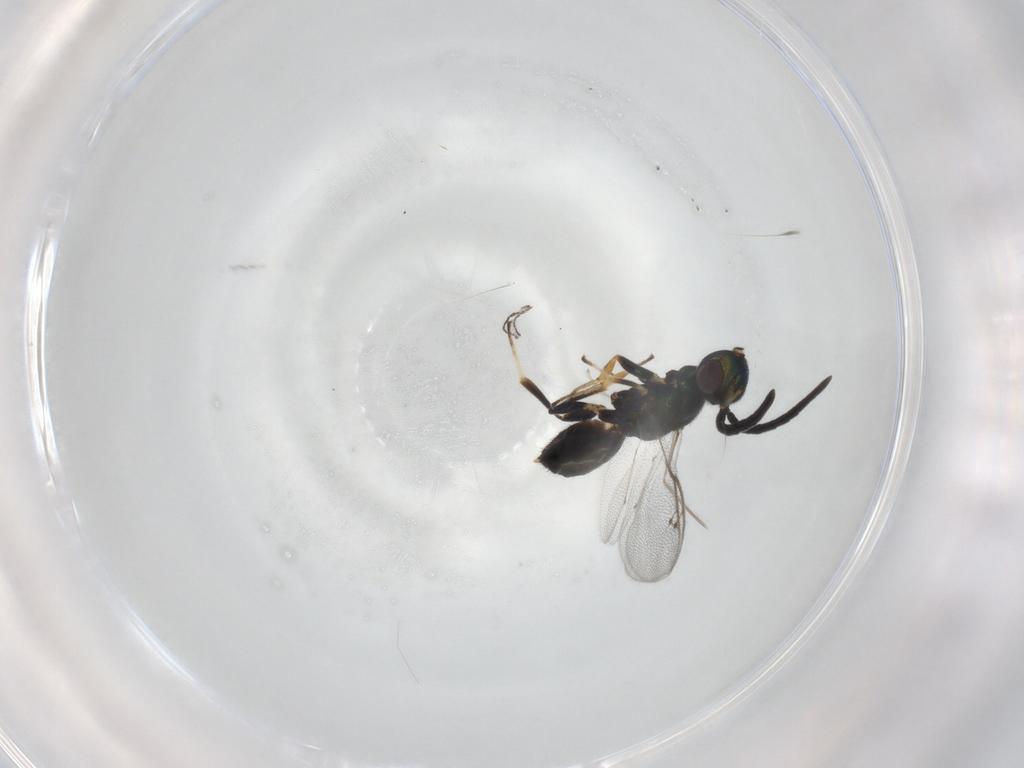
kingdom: Animalia
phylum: Arthropoda
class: Insecta
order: Hymenoptera
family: Eupelmidae
